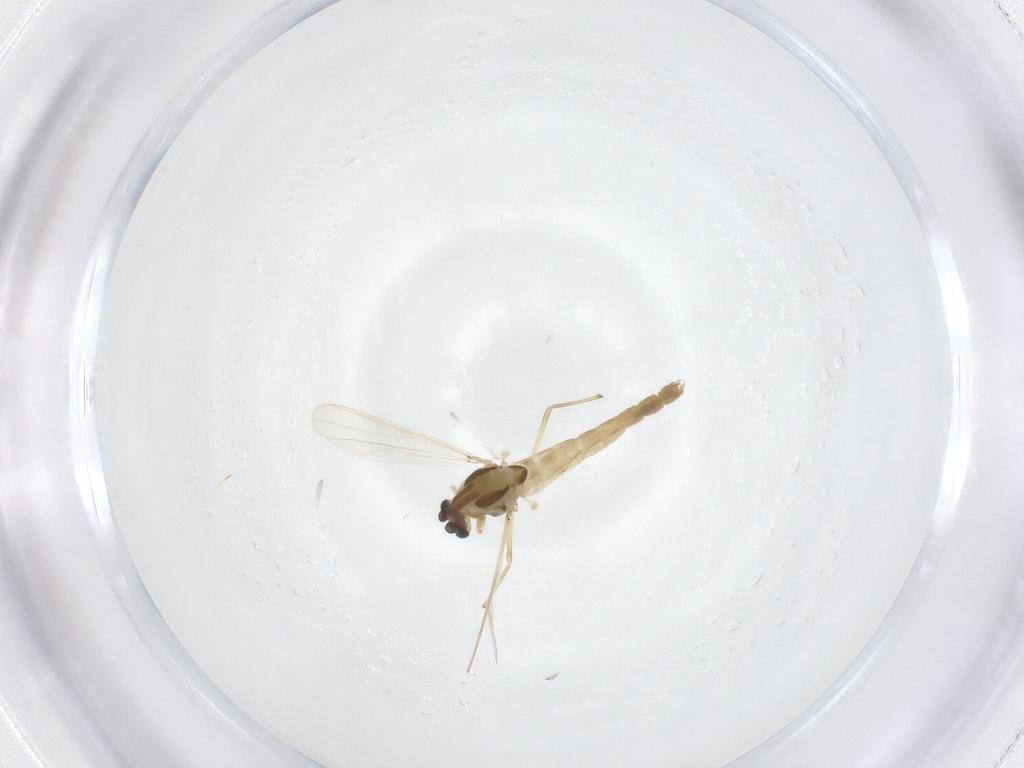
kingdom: Animalia
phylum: Arthropoda
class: Insecta
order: Diptera
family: Chironomidae
